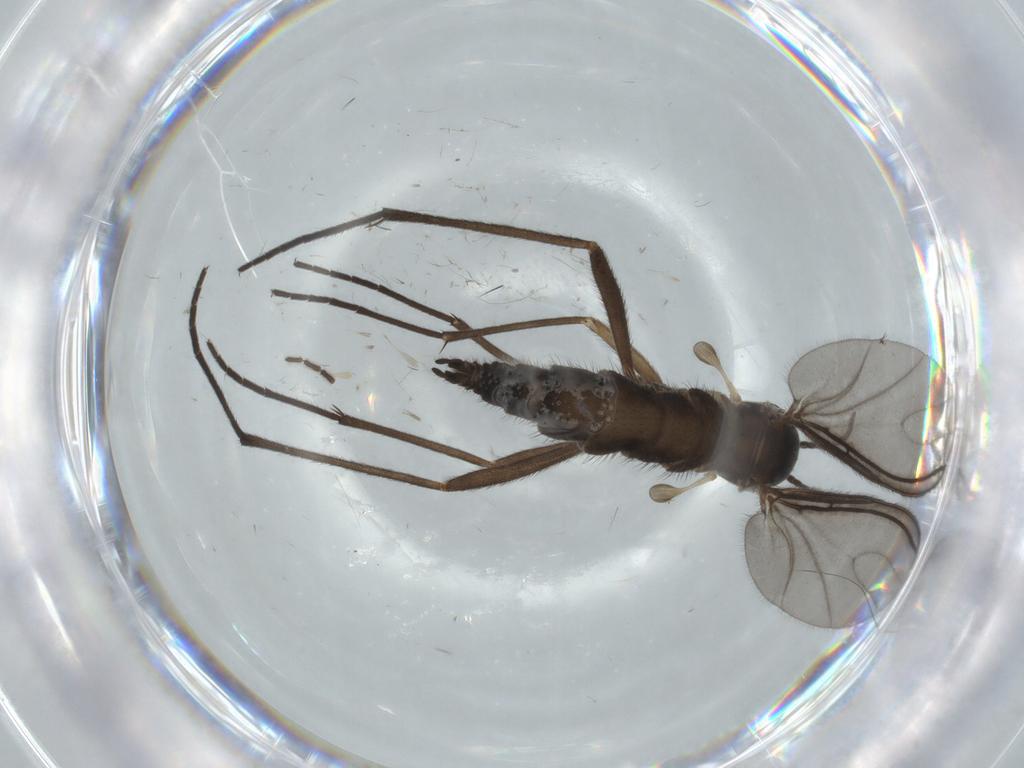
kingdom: Animalia
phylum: Arthropoda
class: Insecta
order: Diptera
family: Sciaridae
